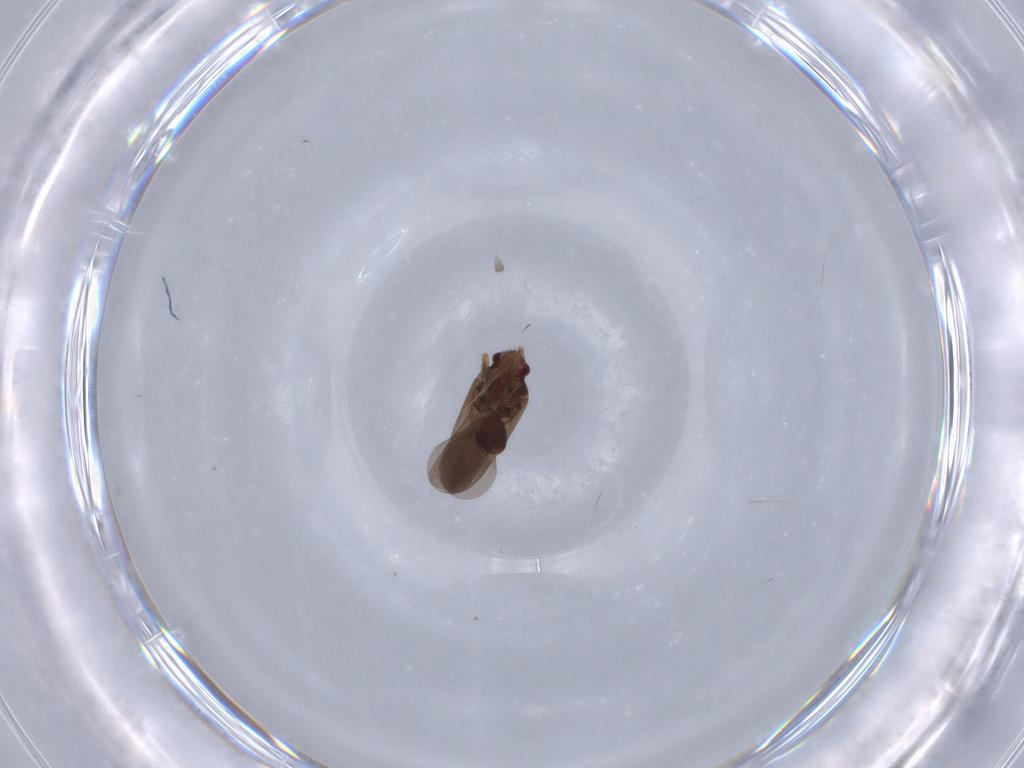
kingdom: Animalia
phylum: Arthropoda
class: Insecta
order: Hemiptera
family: Ceratocombidae
